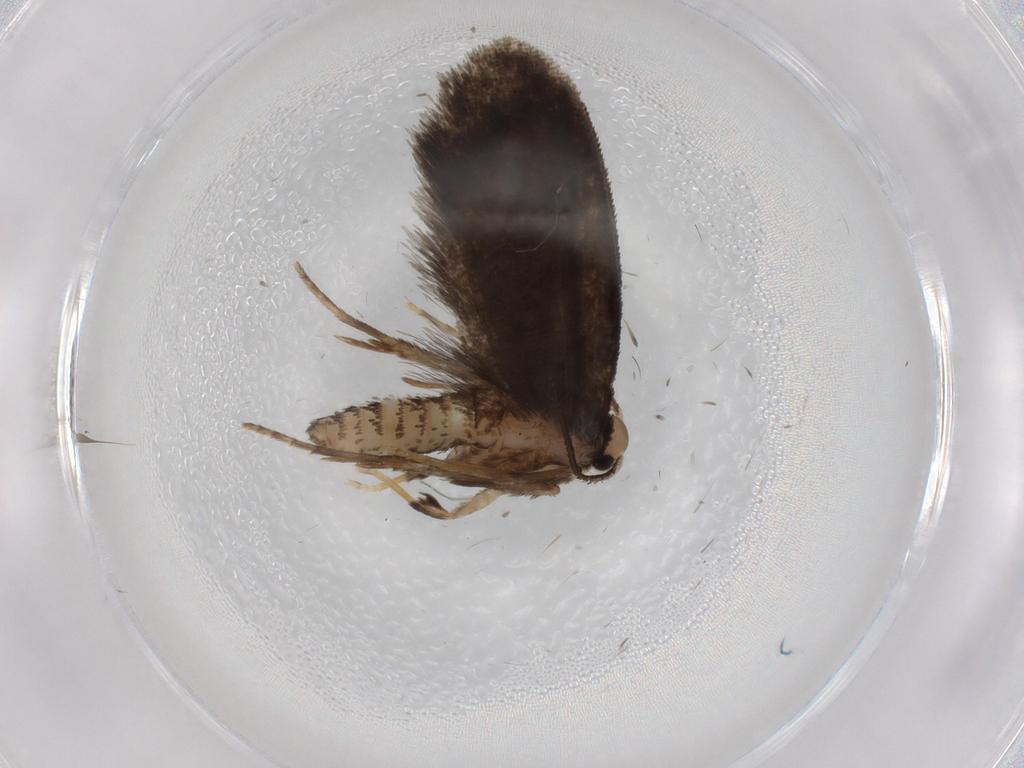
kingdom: Animalia
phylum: Arthropoda
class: Insecta
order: Lepidoptera
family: Psychidae
